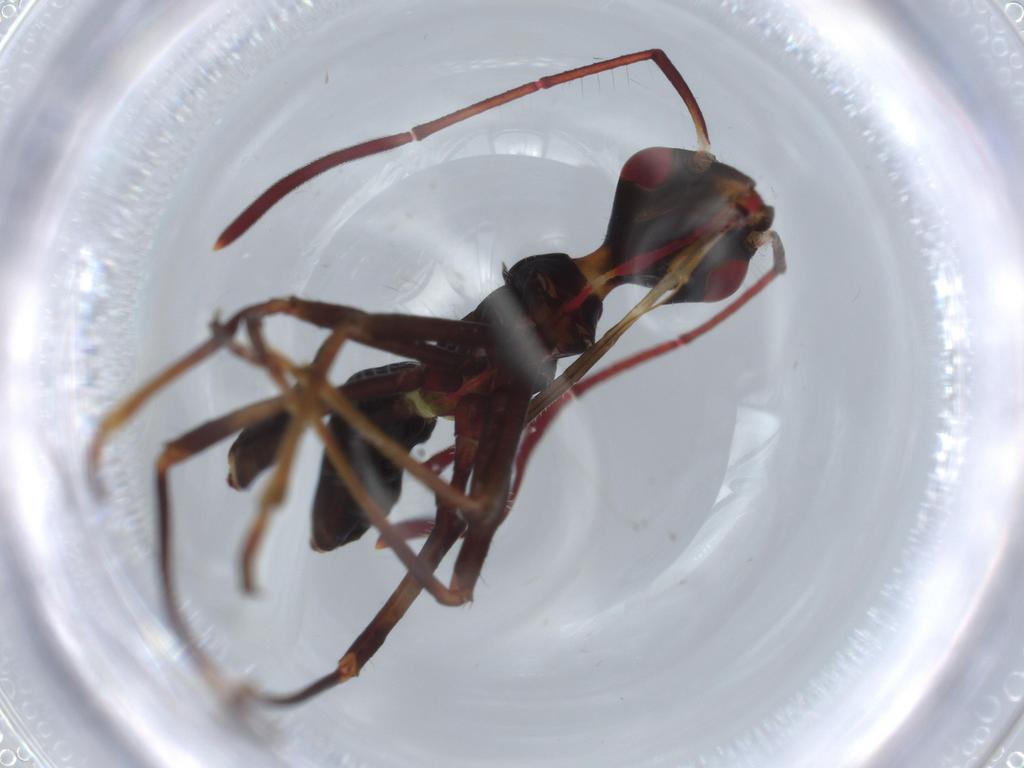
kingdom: Animalia
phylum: Arthropoda
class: Insecta
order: Hemiptera
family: Alydidae
